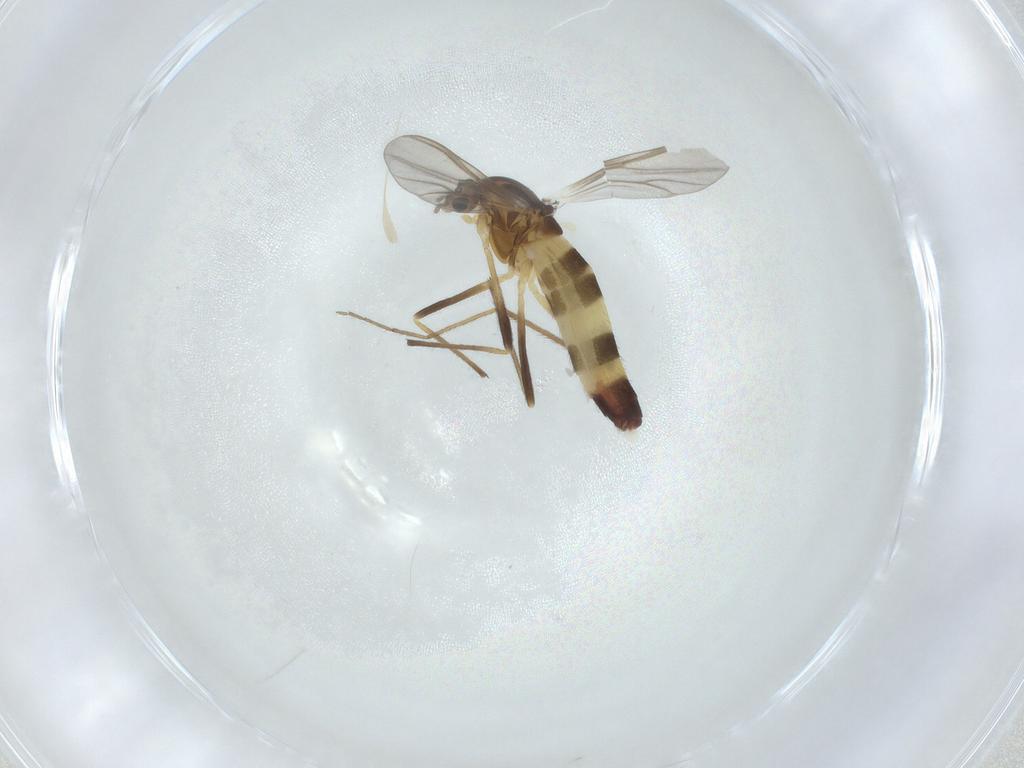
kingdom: Animalia
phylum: Arthropoda
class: Insecta
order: Diptera
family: Chironomidae
